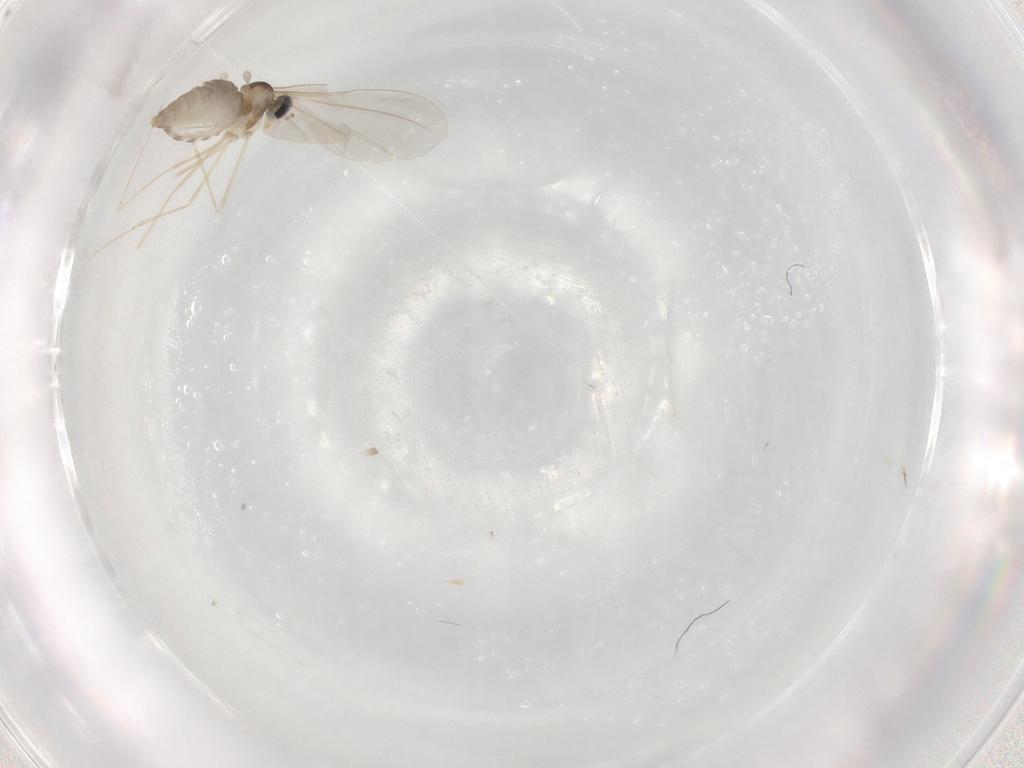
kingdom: Animalia
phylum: Arthropoda
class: Insecta
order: Diptera
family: Cecidomyiidae
